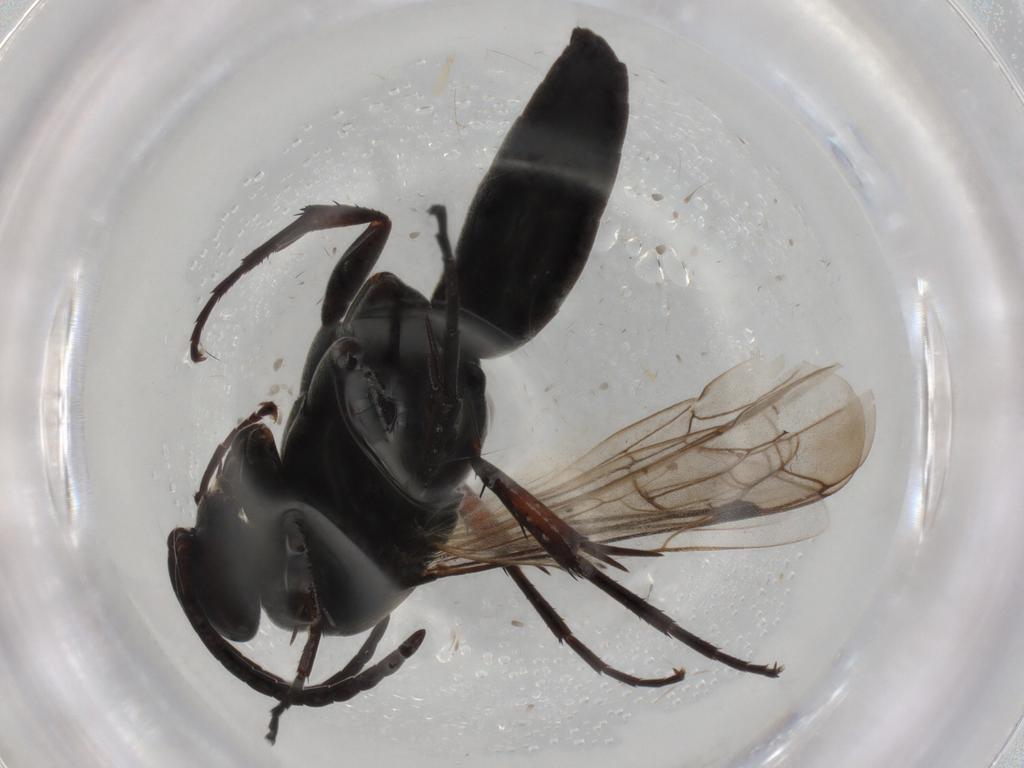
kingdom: Animalia
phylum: Arthropoda
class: Insecta
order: Hymenoptera
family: Pompilidae
